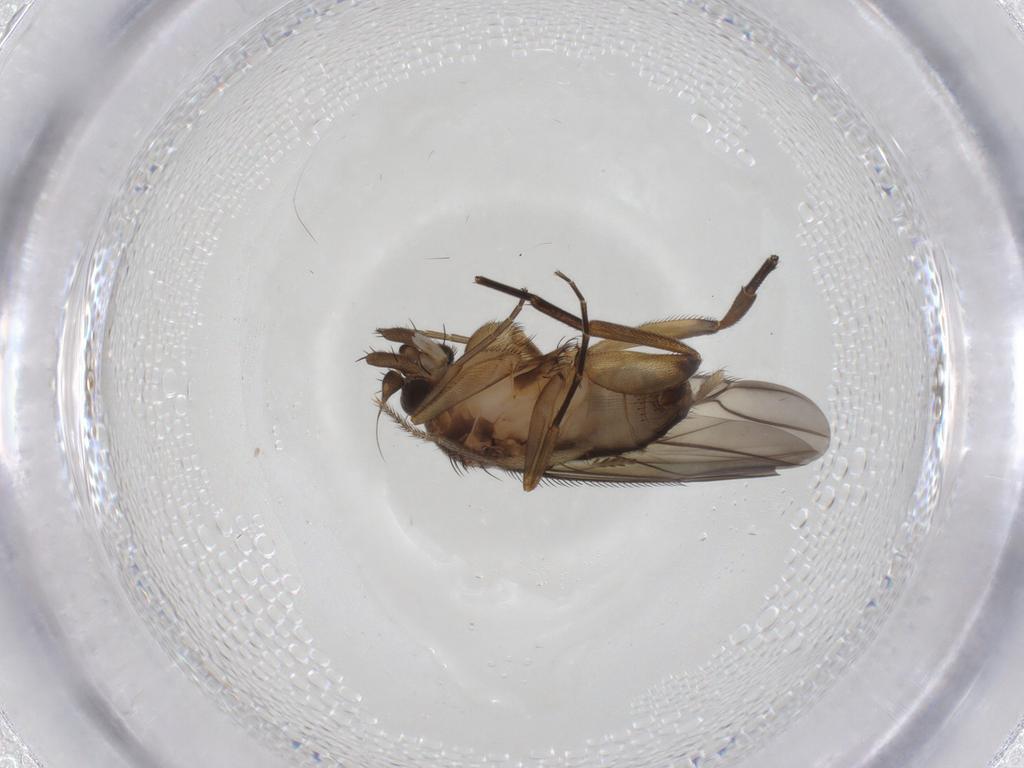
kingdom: Animalia
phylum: Arthropoda
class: Insecta
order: Diptera
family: Phoridae
